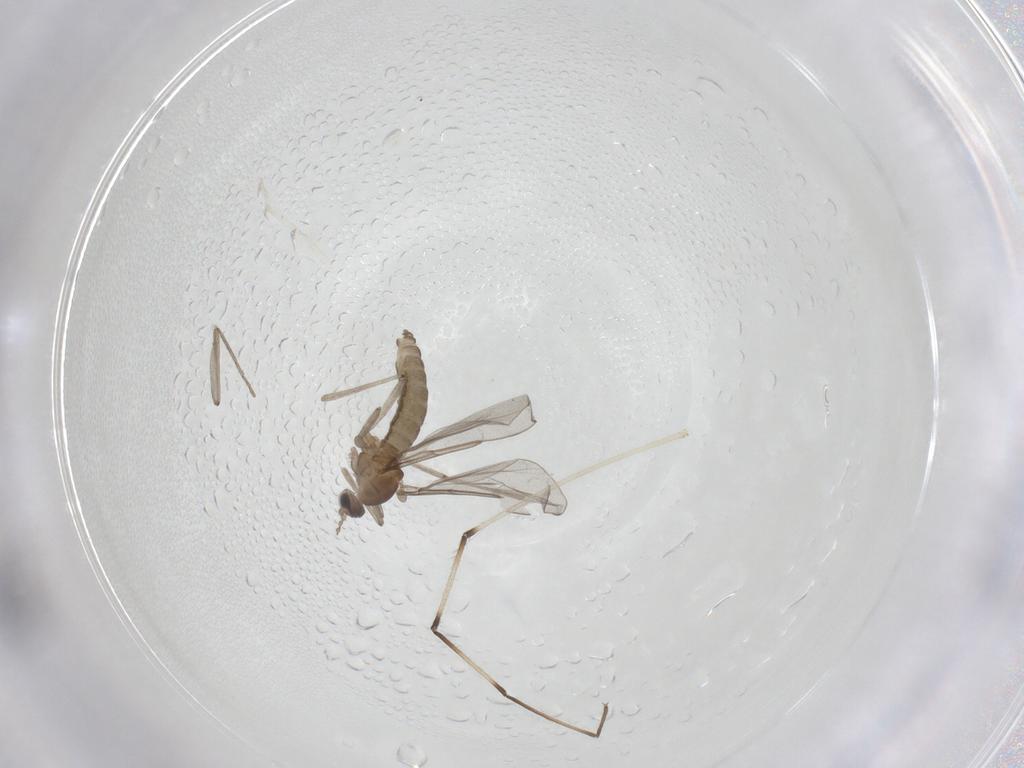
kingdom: Animalia
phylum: Arthropoda
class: Insecta
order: Diptera
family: Cecidomyiidae
